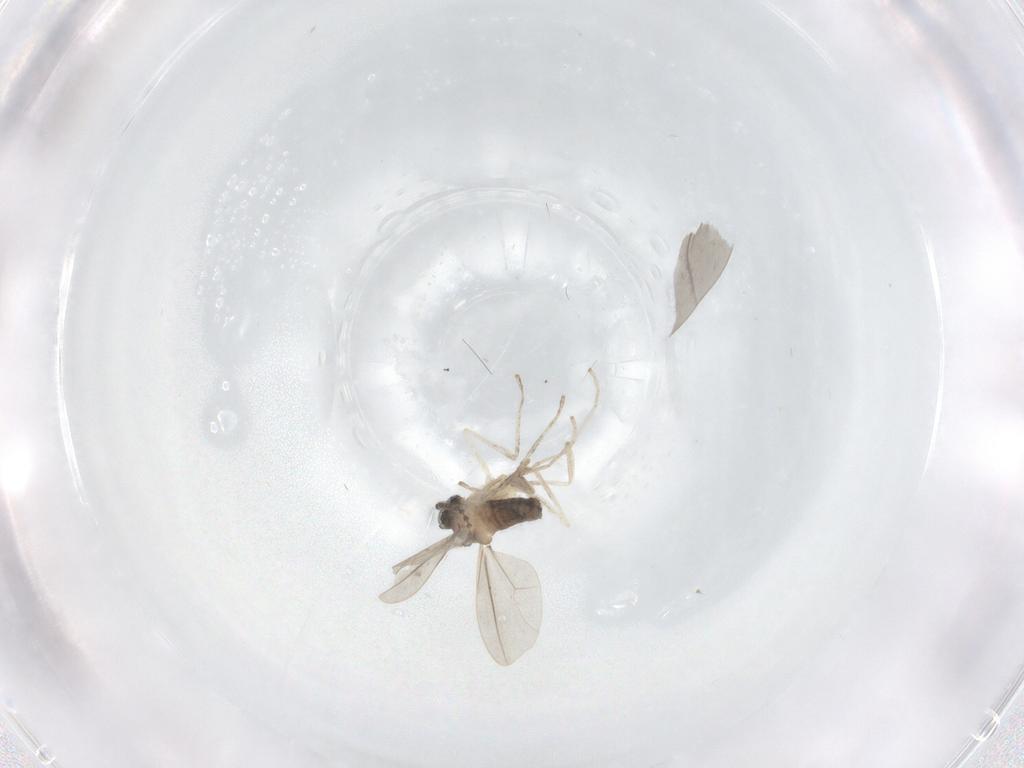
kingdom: Animalia
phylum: Arthropoda
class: Insecta
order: Diptera
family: Cecidomyiidae
